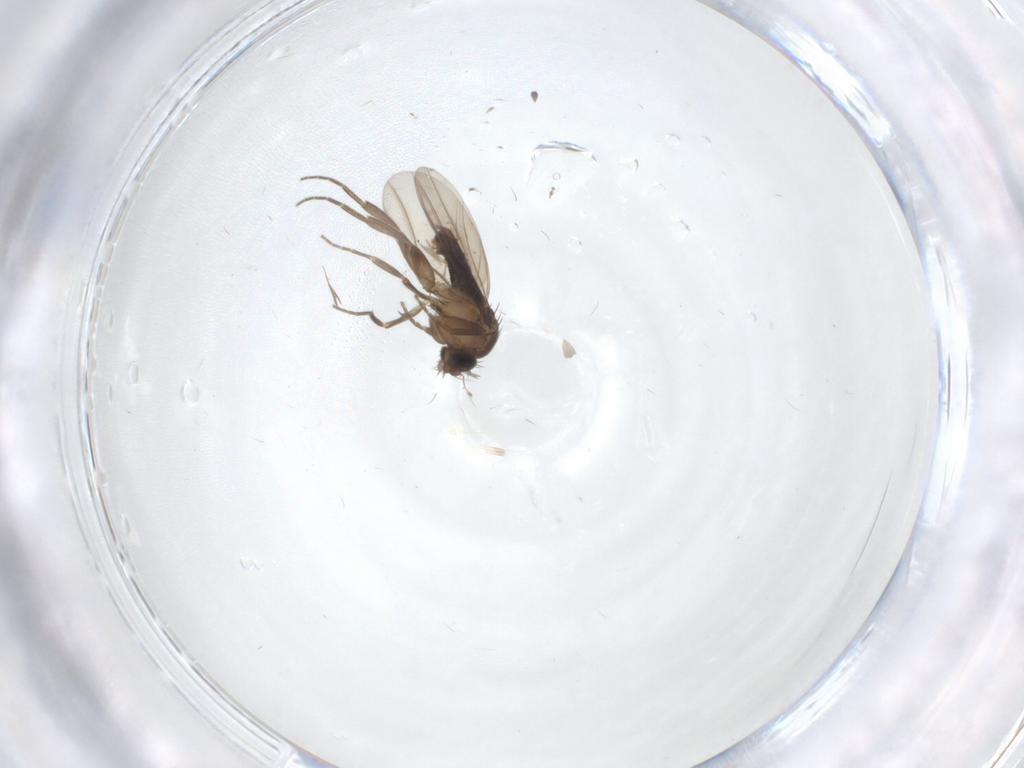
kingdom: Animalia
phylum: Arthropoda
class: Insecta
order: Diptera
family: Phoridae
